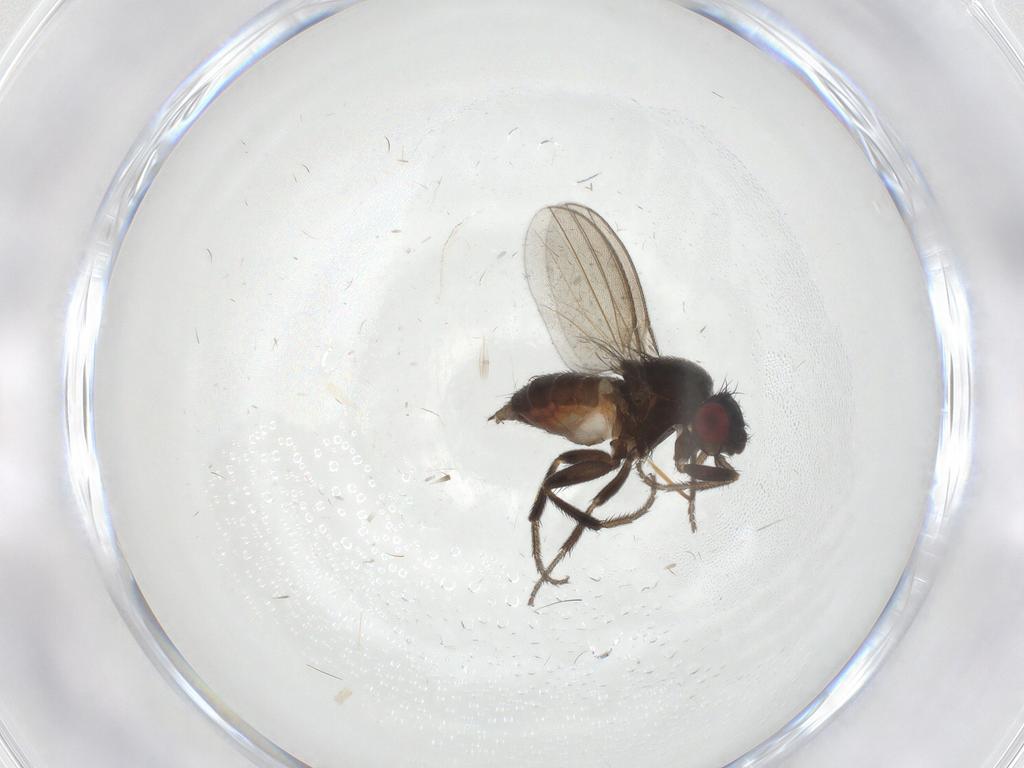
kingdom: Animalia
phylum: Arthropoda
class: Insecta
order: Diptera
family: Milichiidae
